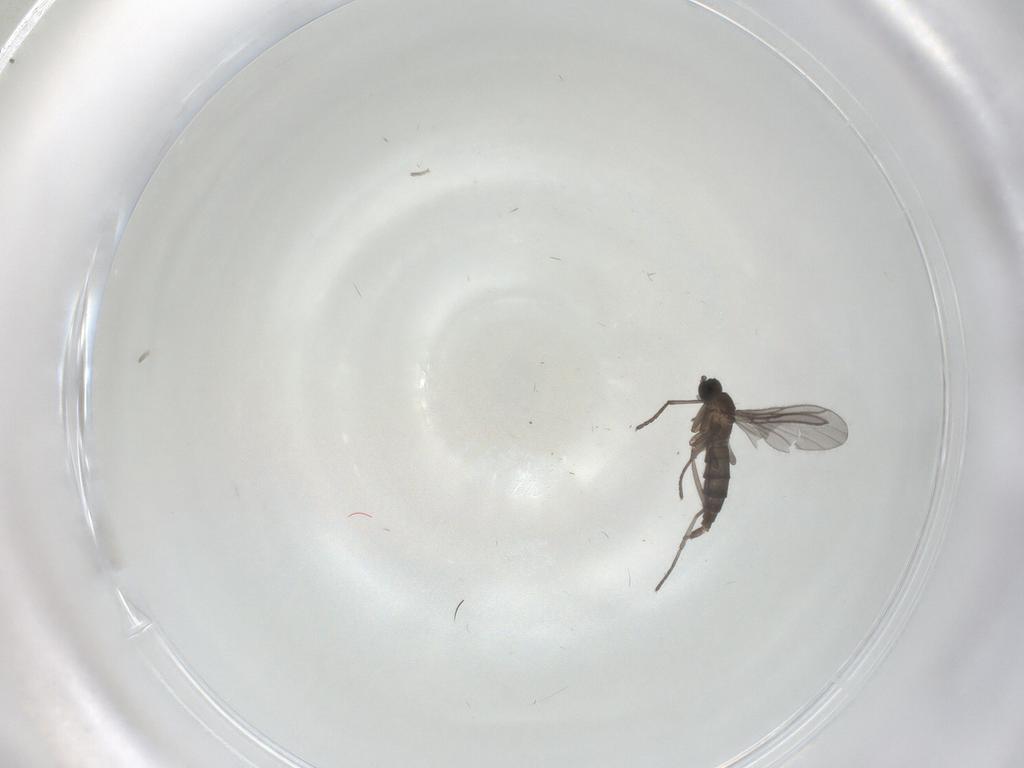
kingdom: Animalia
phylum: Arthropoda
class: Insecta
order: Diptera
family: Phoridae
